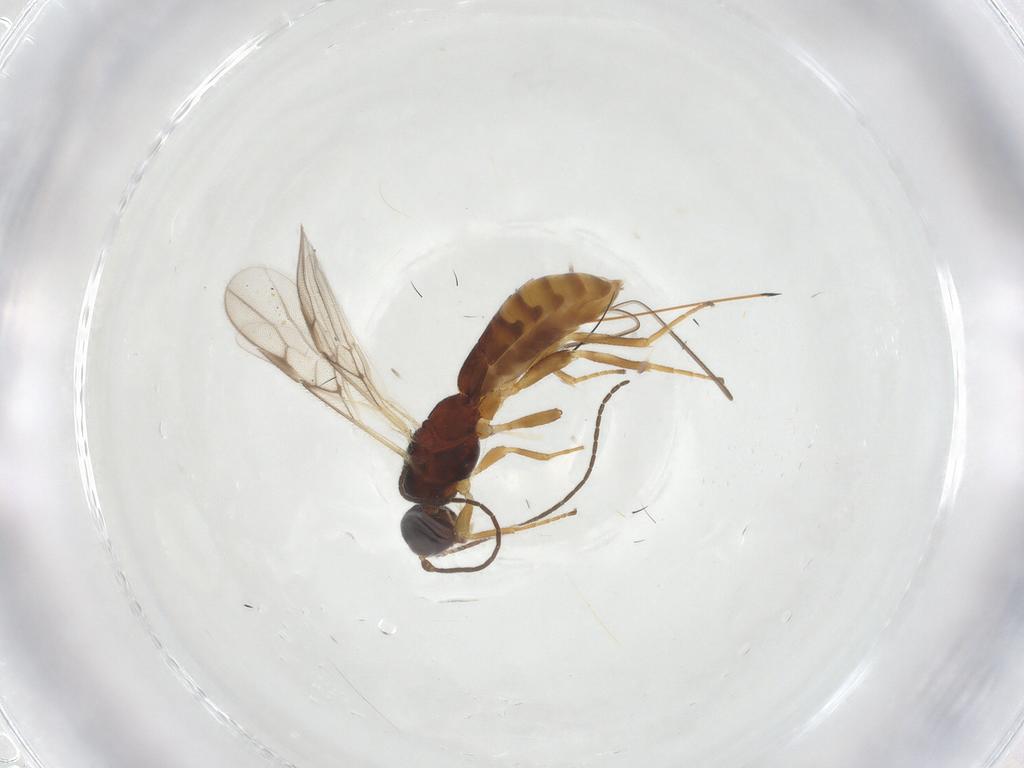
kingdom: Animalia
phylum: Arthropoda
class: Insecta
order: Hymenoptera
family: Braconidae
